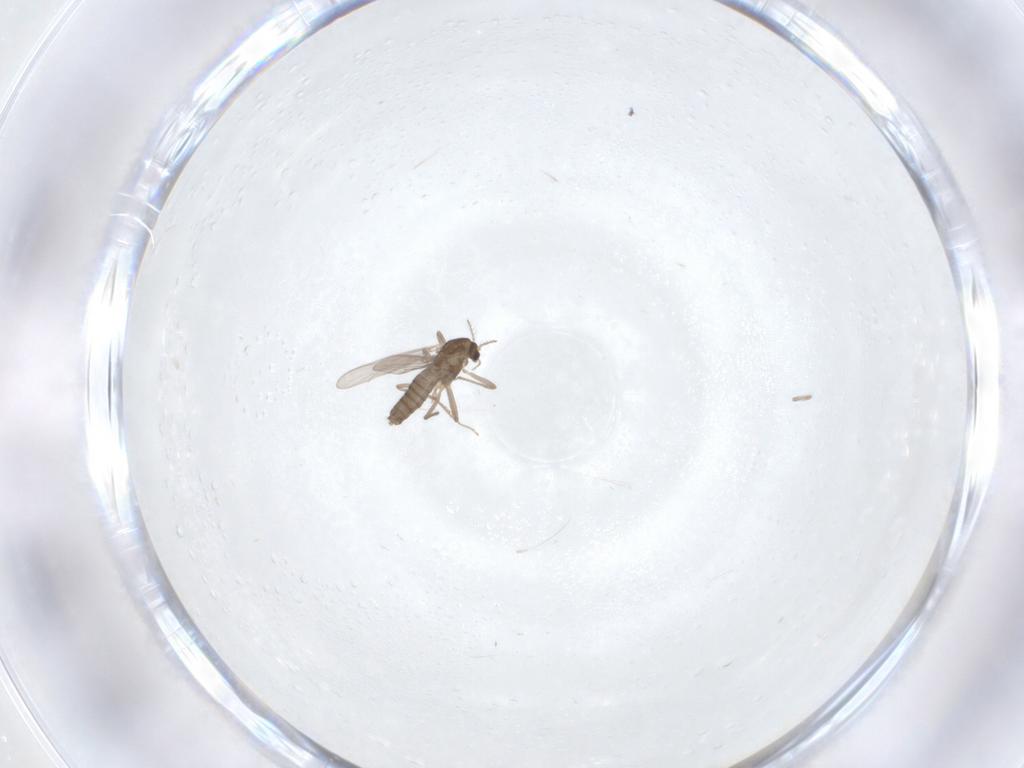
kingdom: Animalia
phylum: Arthropoda
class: Insecta
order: Diptera
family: Chironomidae
